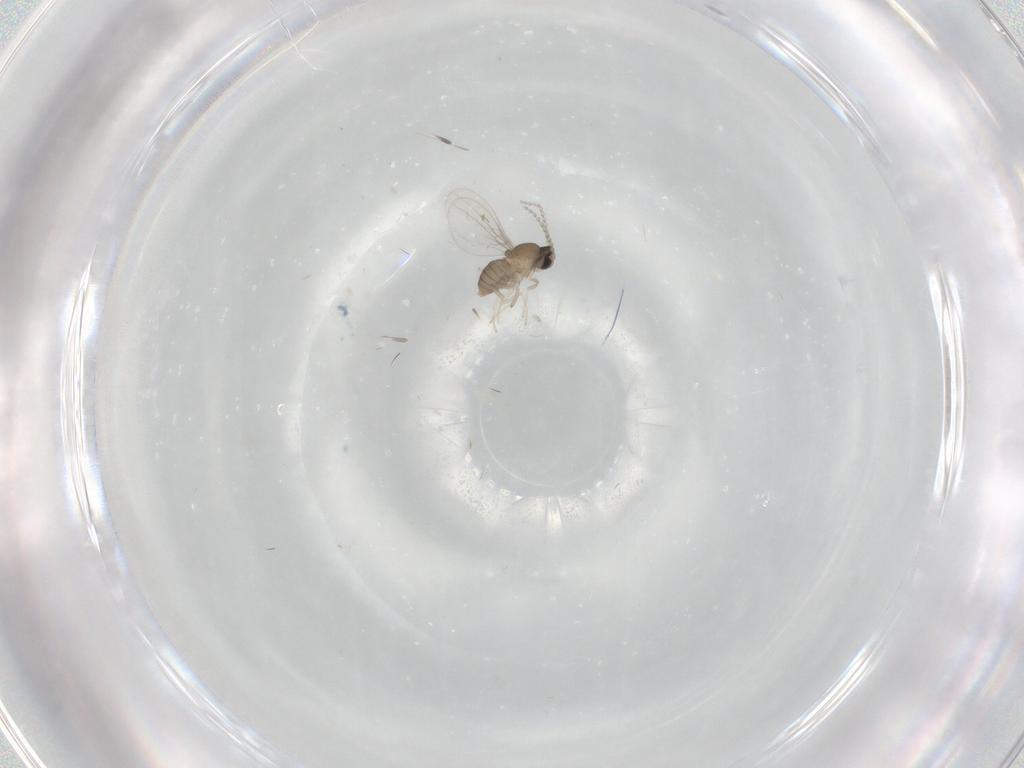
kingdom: Animalia
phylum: Arthropoda
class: Insecta
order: Diptera
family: Cecidomyiidae
